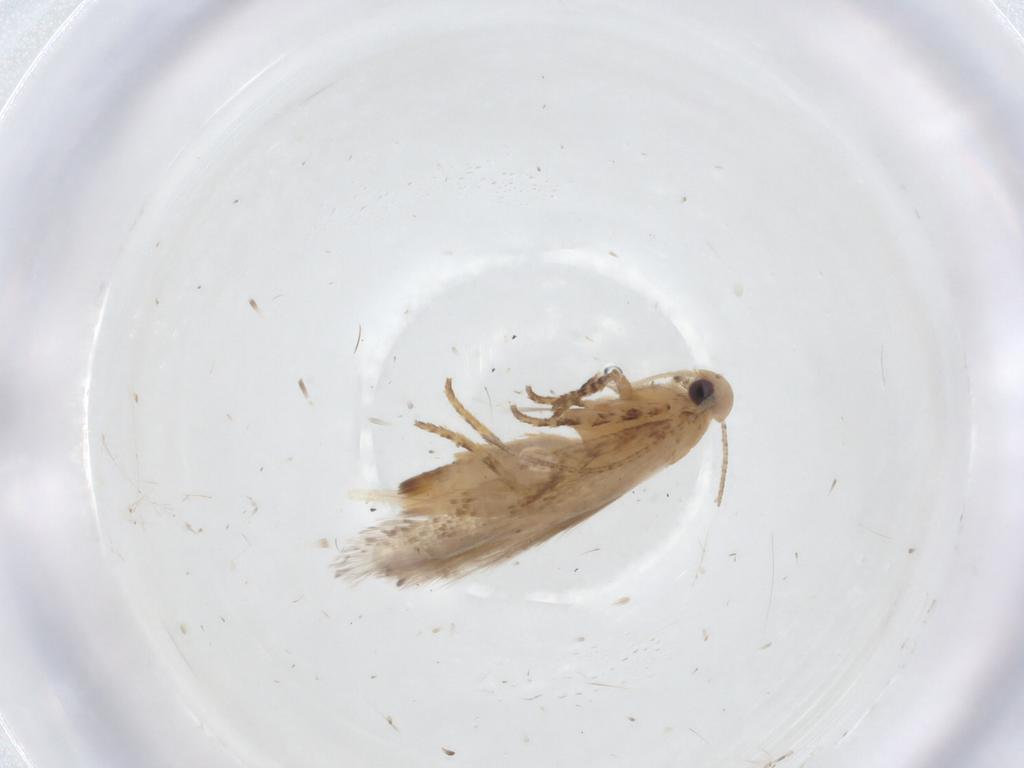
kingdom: Animalia
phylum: Arthropoda
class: Insecta
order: Lepidoptera
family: Gelechiidae
